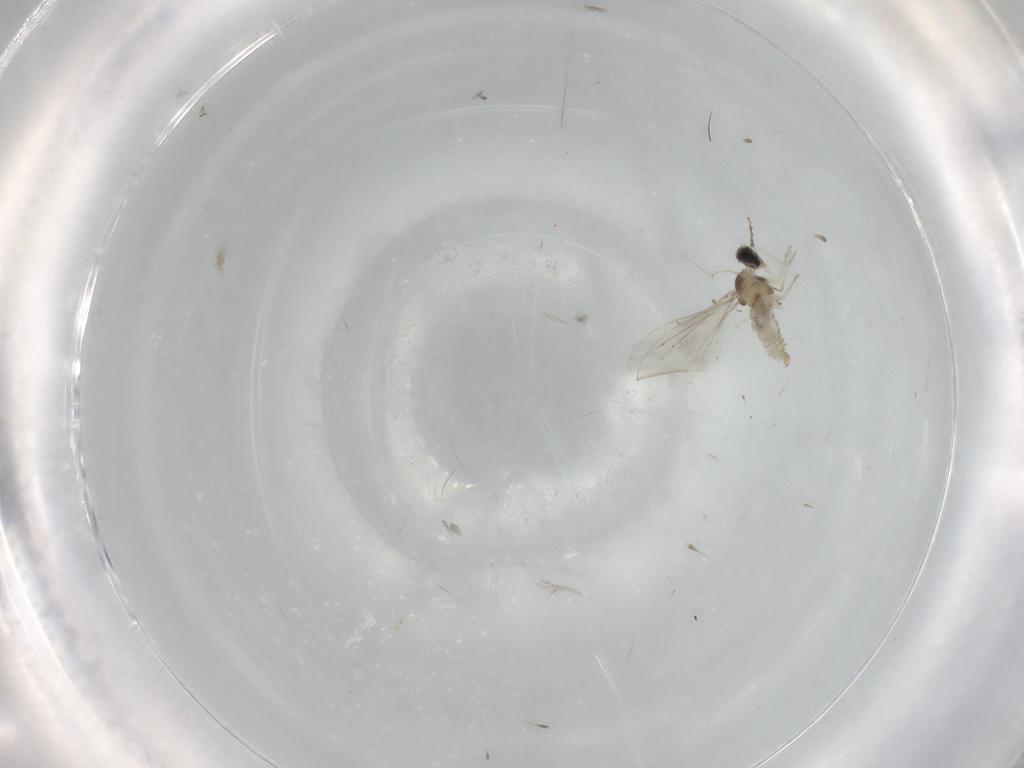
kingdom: Animalia
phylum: Arthropoda
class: Insecta
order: Diptera
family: Cecidomyiidae
